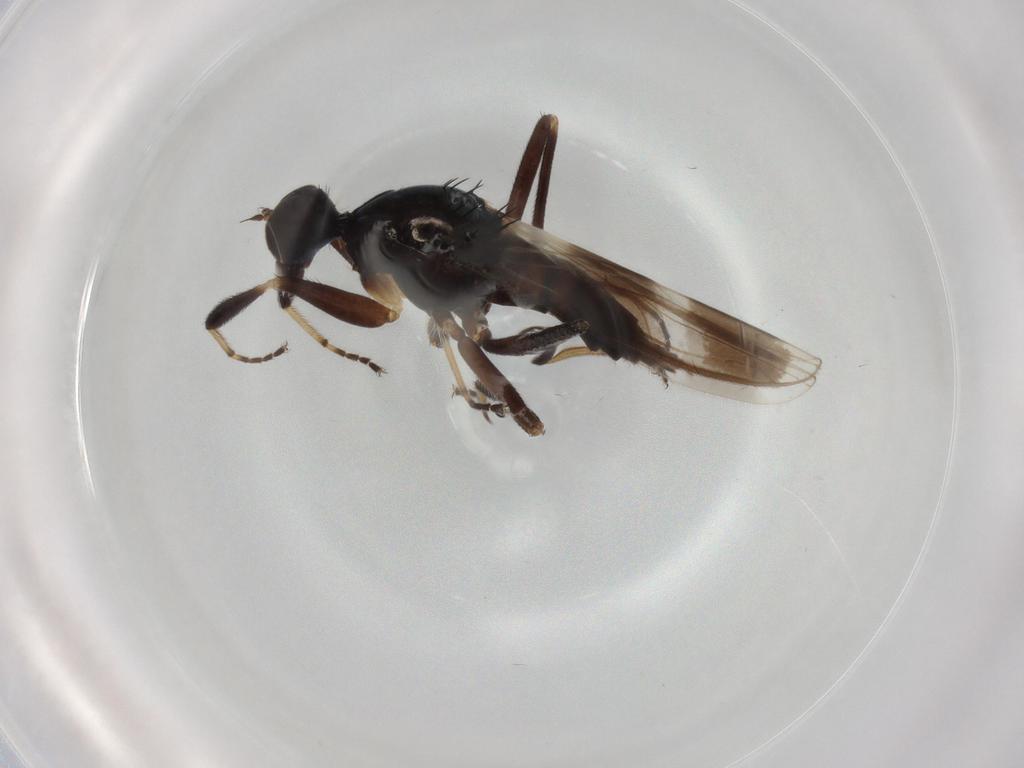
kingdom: Animalia
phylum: Arthropoda
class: Insecta
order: Diptera
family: Hybotidae
